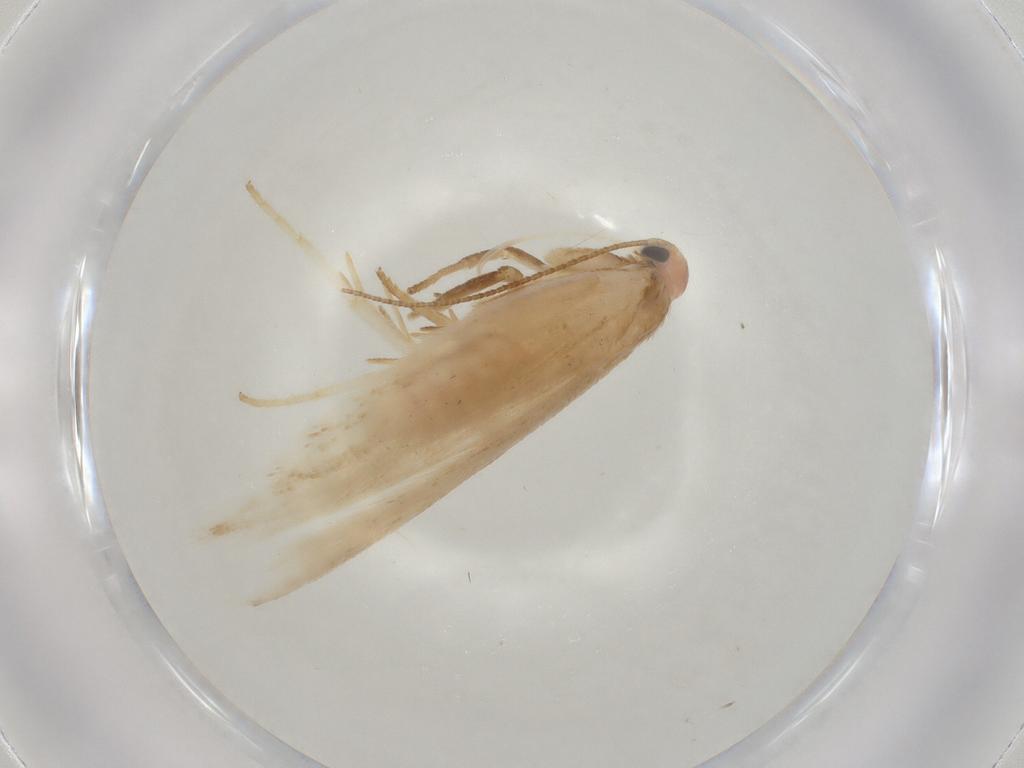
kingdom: Animalia
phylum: Arthropoda
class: Insecta
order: Lepidoptera
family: Gelechiidae
